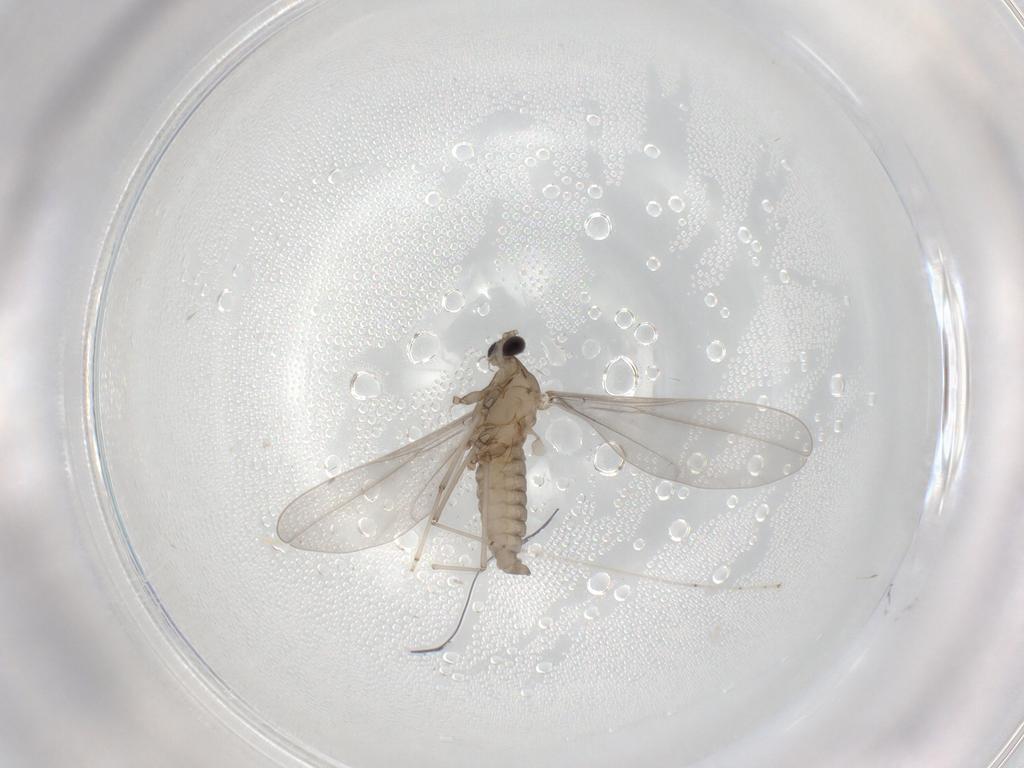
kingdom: Animalia
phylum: Arthropoda
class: Insecta
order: Diptera
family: Cecidomyiidae
